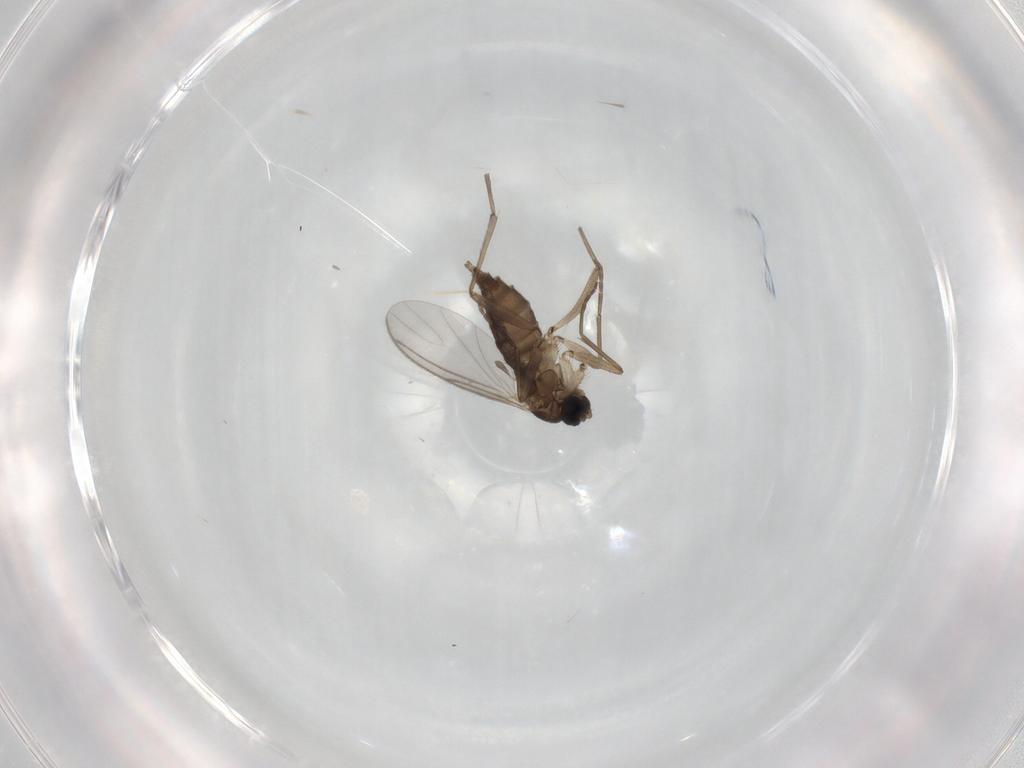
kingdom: Animalia
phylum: Arthropoda
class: Insecta
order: Diptera
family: Sciaridae
